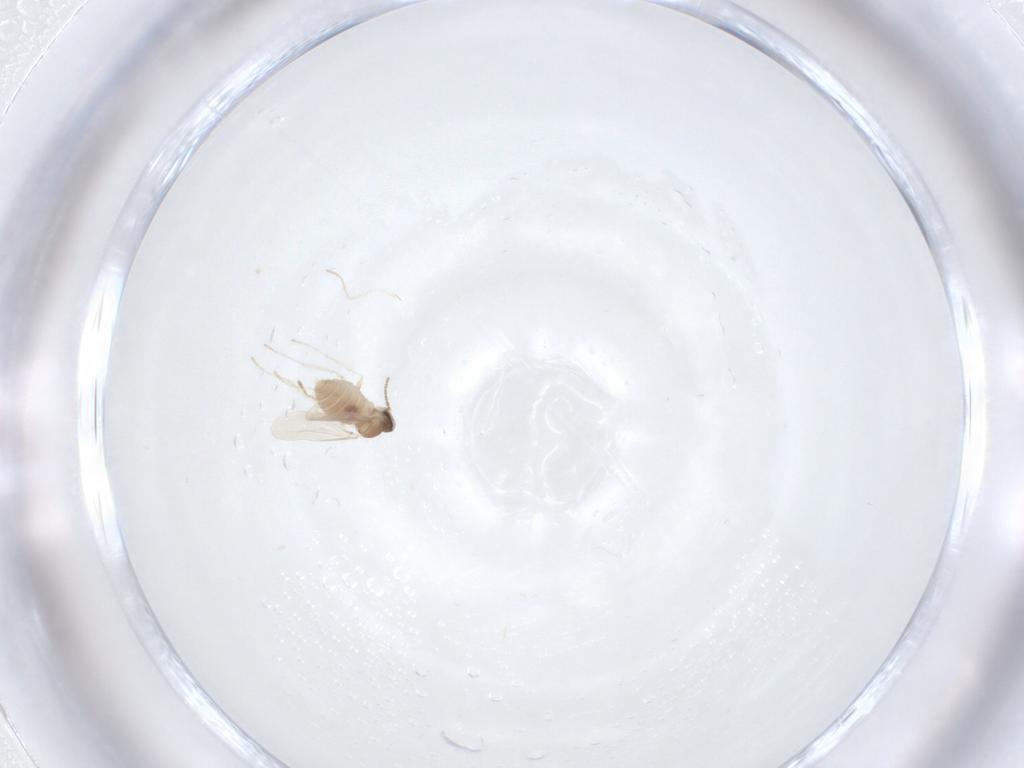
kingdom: Animalia
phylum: Arthropoda
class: Insecta
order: Diptera
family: Cecidomyiidae
